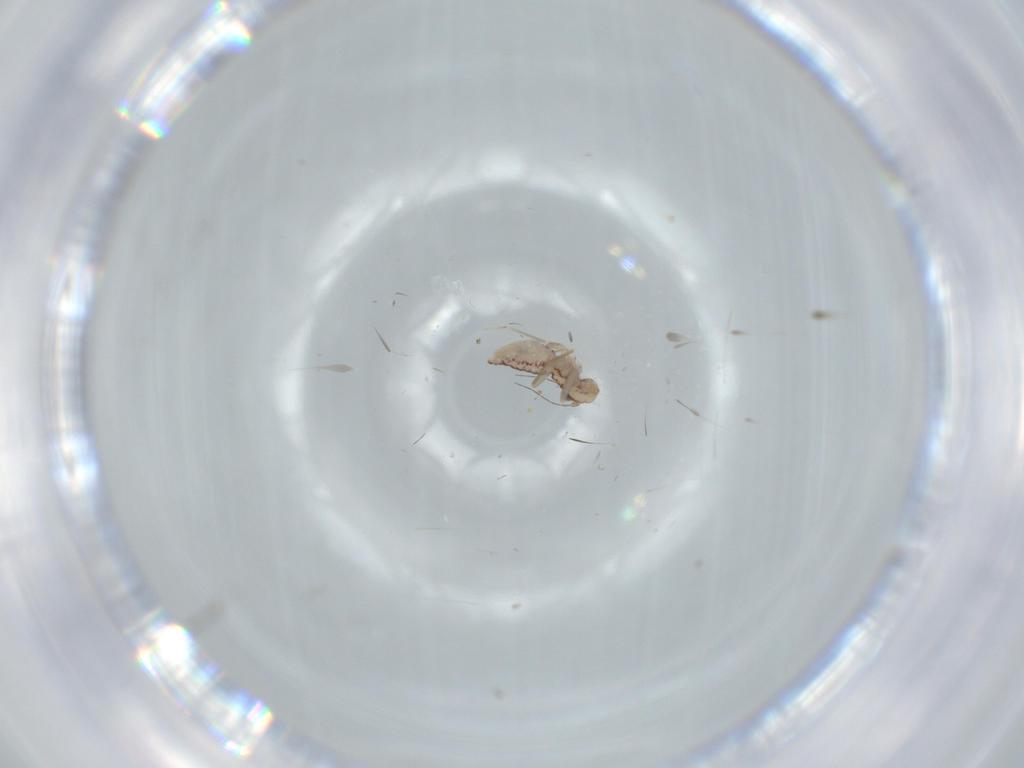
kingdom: Animalia
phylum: Arthropoda
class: Insecta
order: Psocodea
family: Lepidopsocidae
